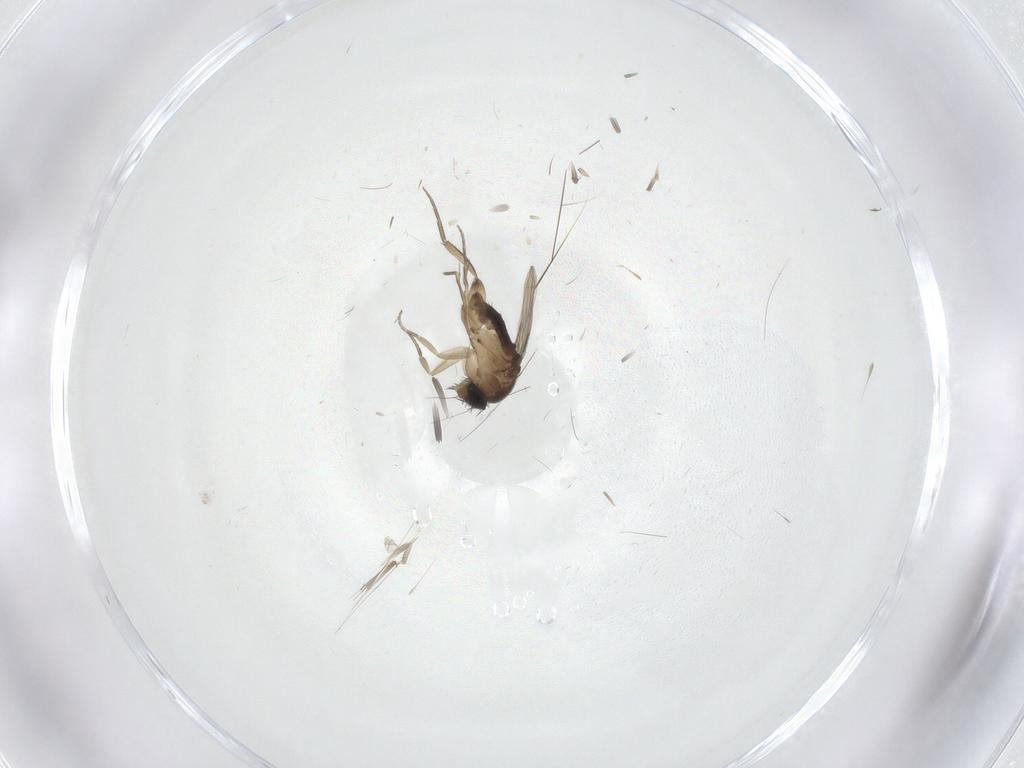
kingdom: Animalia
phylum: Arthropoda
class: Insecta
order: Diptera
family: Phoridae
